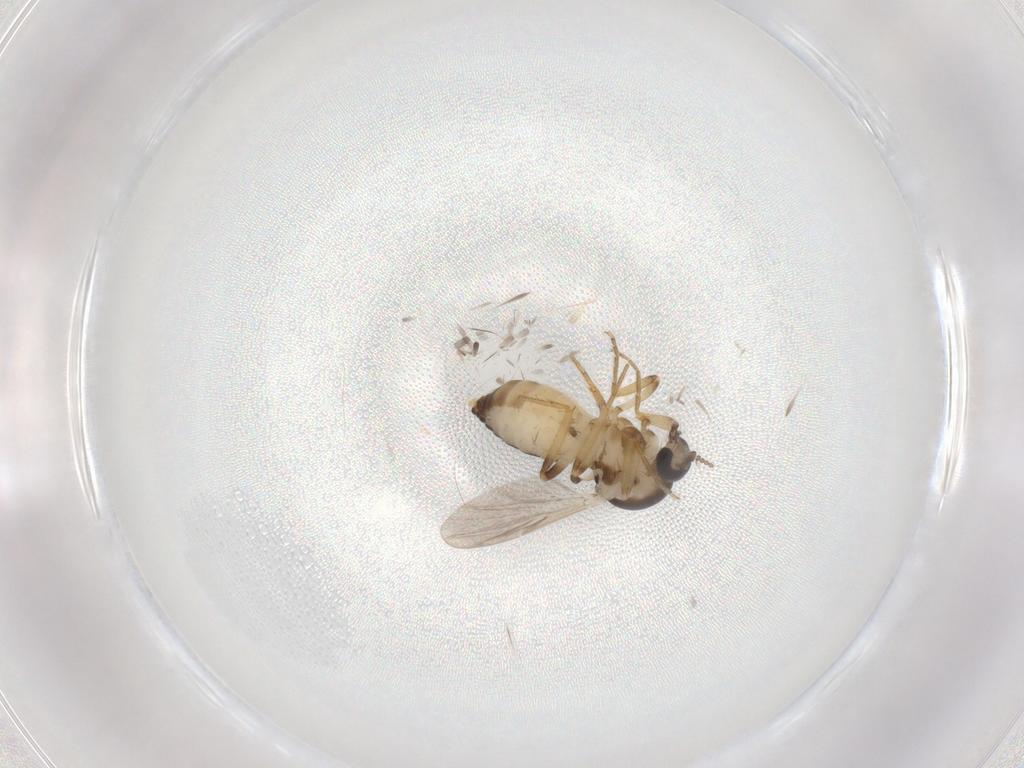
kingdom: Animalia
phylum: Arthropoda
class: Insecta
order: Diptera
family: Ceratopogonidae
